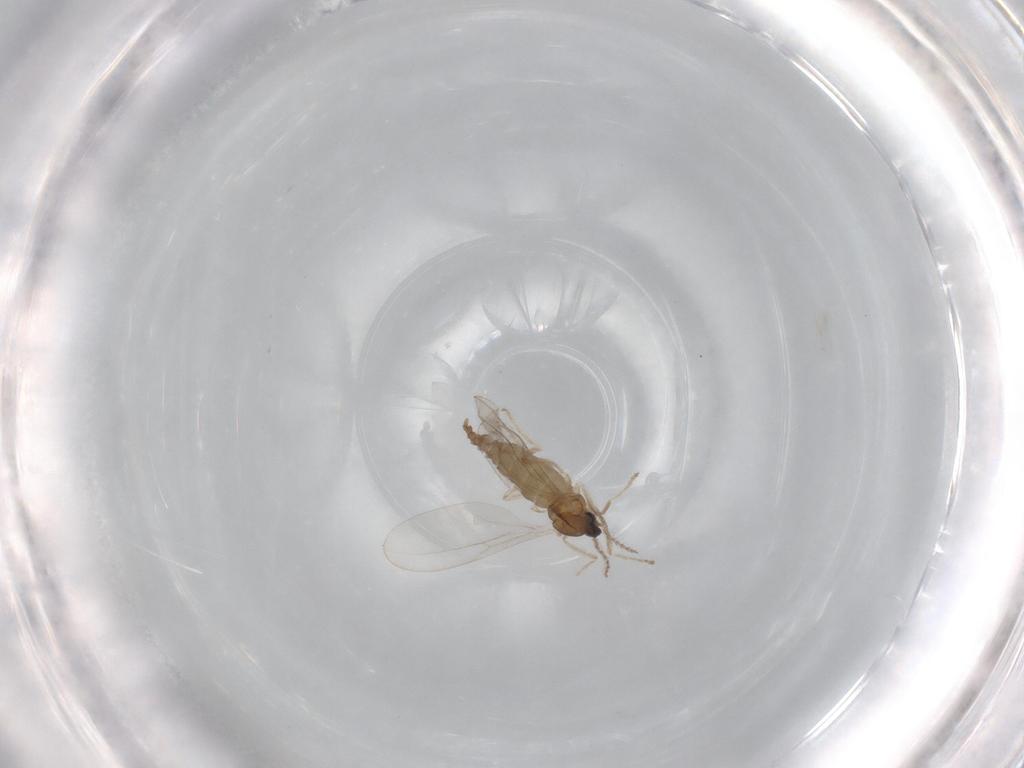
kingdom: Animalia
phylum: Arthropoda
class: Insecta
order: Diptera
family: Cecidomyiidae
